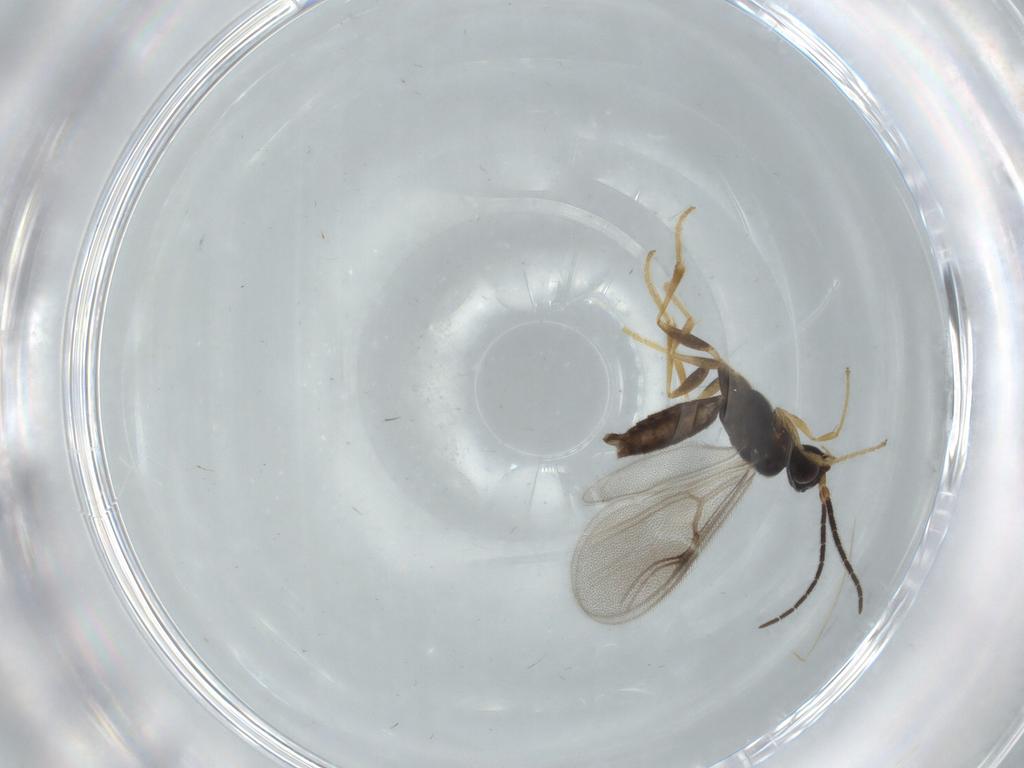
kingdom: Animalia
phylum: Arthropoda
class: Insecta
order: Hymenoptera
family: Dryinidae
